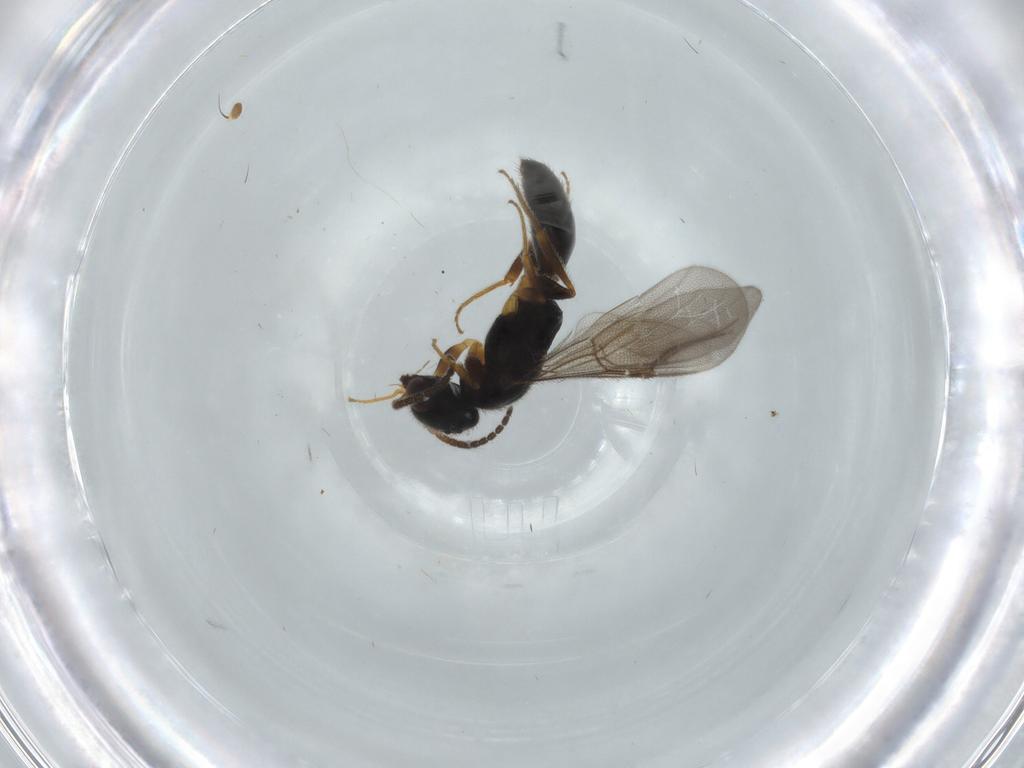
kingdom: Animalia
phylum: Arthropoda
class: Insecta
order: Hymenoptera
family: Bethylidae
